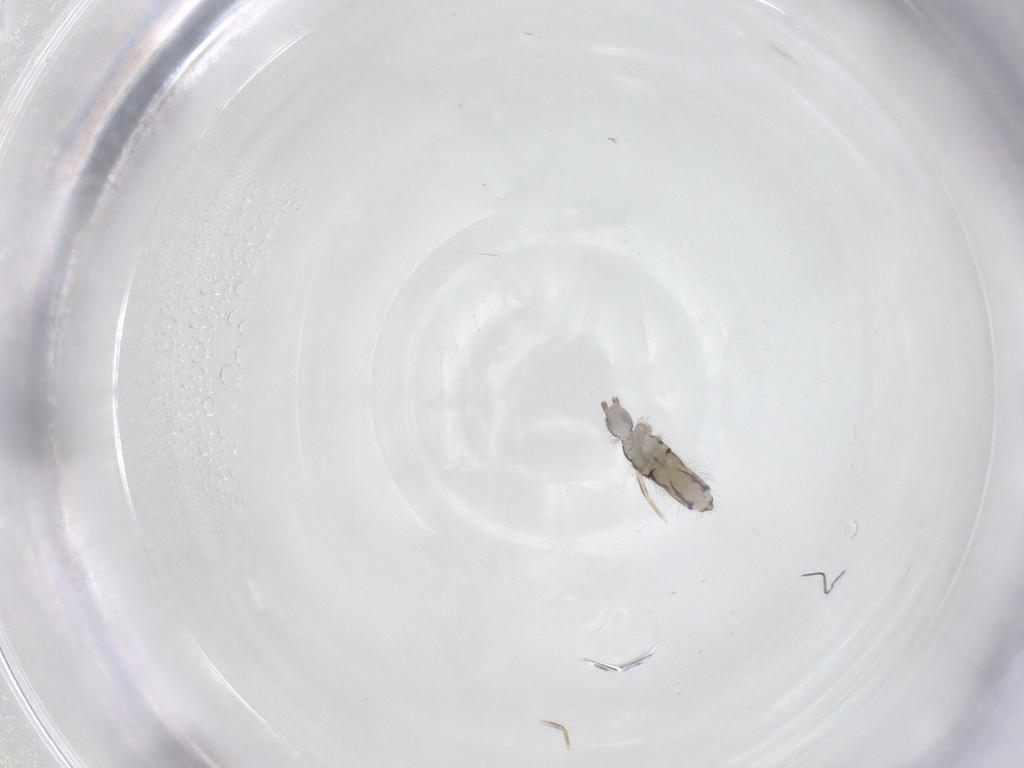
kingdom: Animalia
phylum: Arthropoda
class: Collembola
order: Entomobryomorpha
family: Entomobryidae
